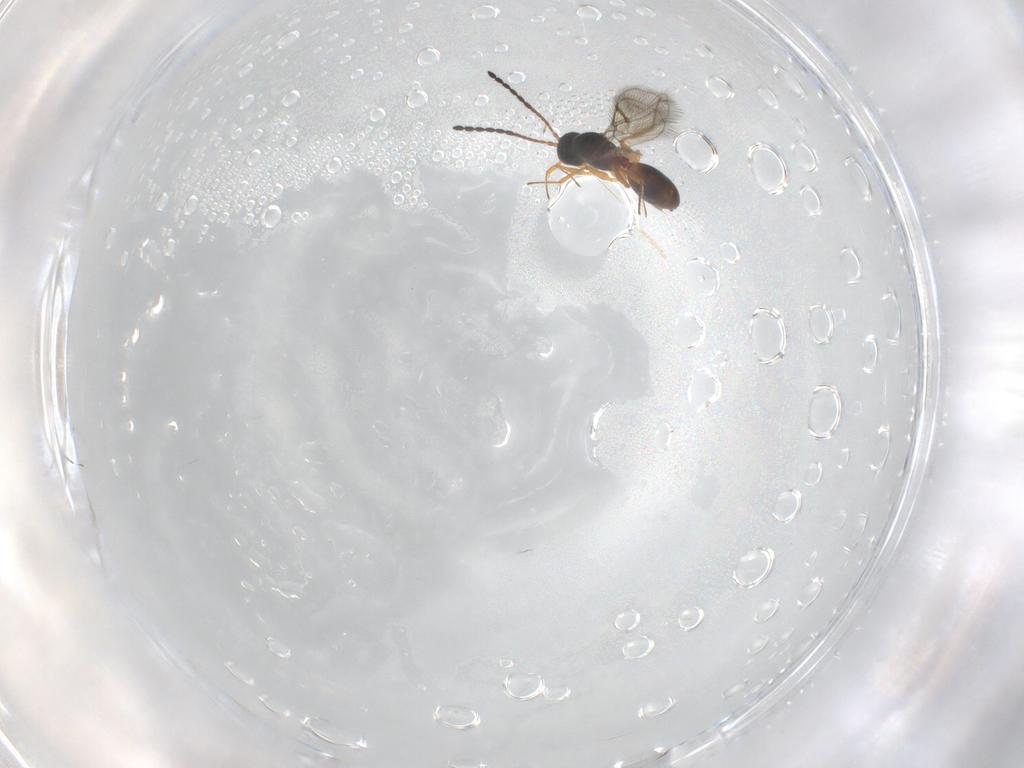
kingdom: Animalia
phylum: Arthropoda
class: Insecta
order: Hymenoptera
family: Figitidae
